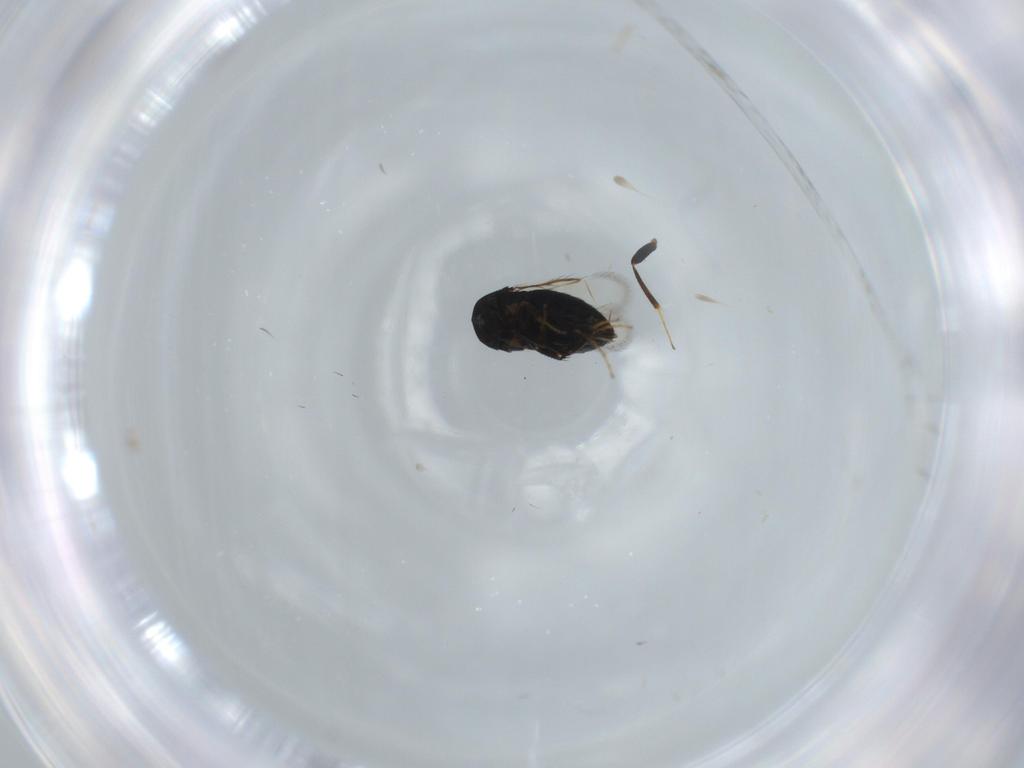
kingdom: Animalia
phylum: Arthropoda
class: Insecta
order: Hymenoptera
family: Signiphoridae
